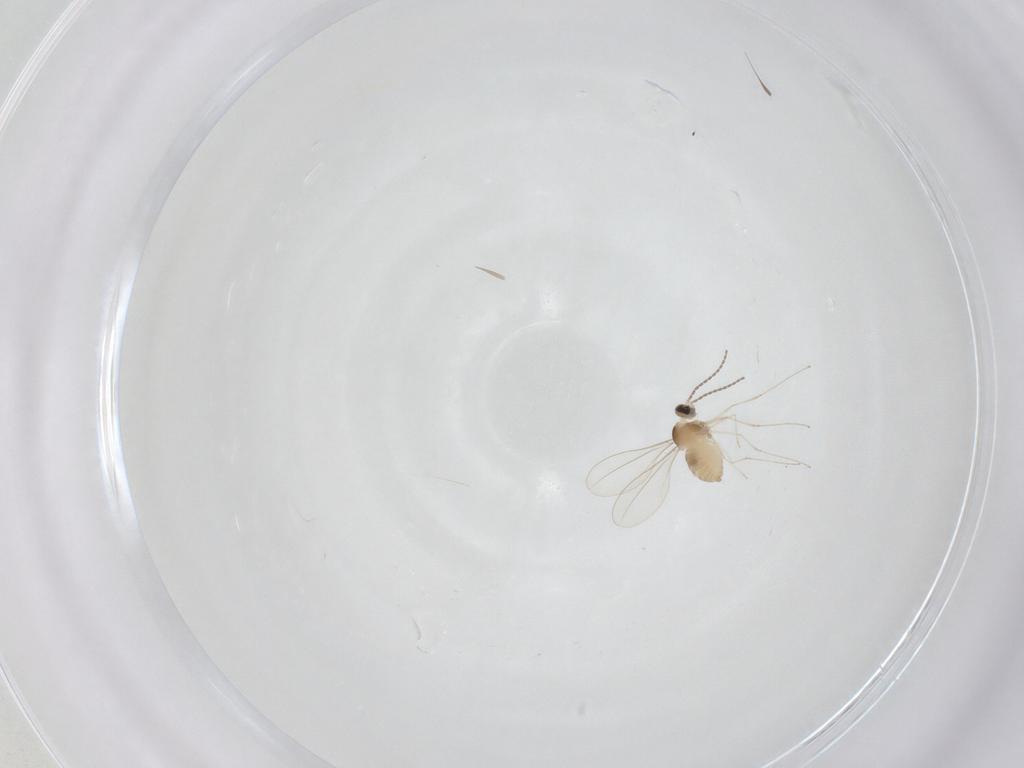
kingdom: Animalia
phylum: Arthropoda
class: Insecta
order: Diptera
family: Cecidomyiidae
